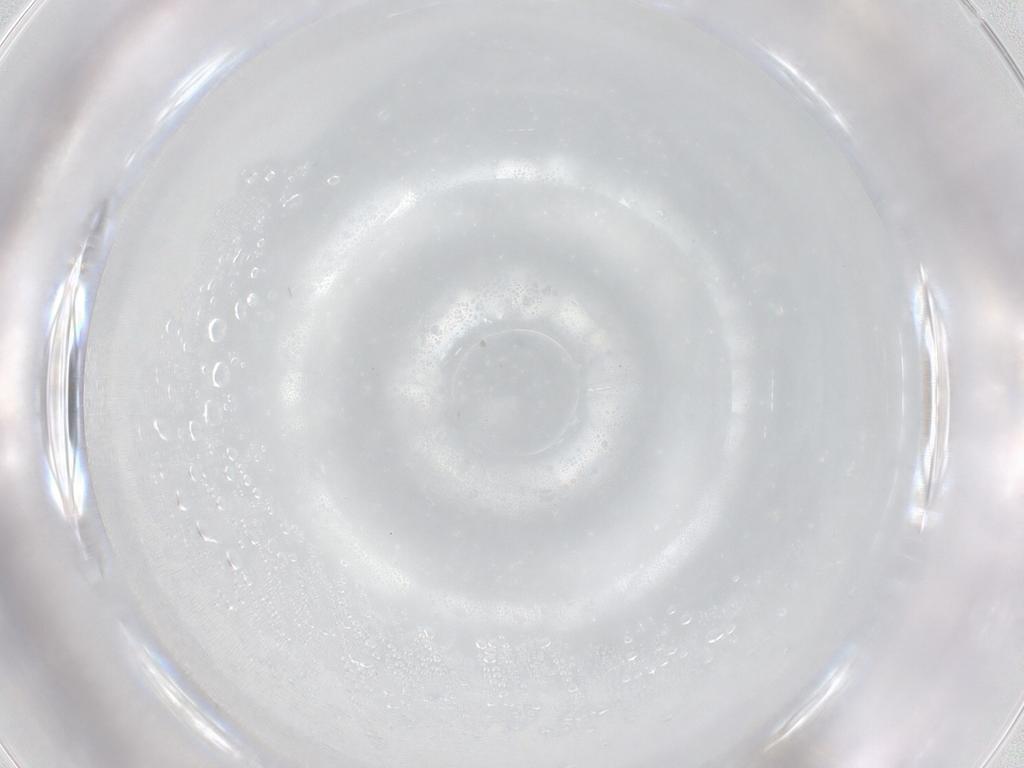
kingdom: Animalia
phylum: Arthropoda
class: Insecta
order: Diptera
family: Cecidomyiidae
